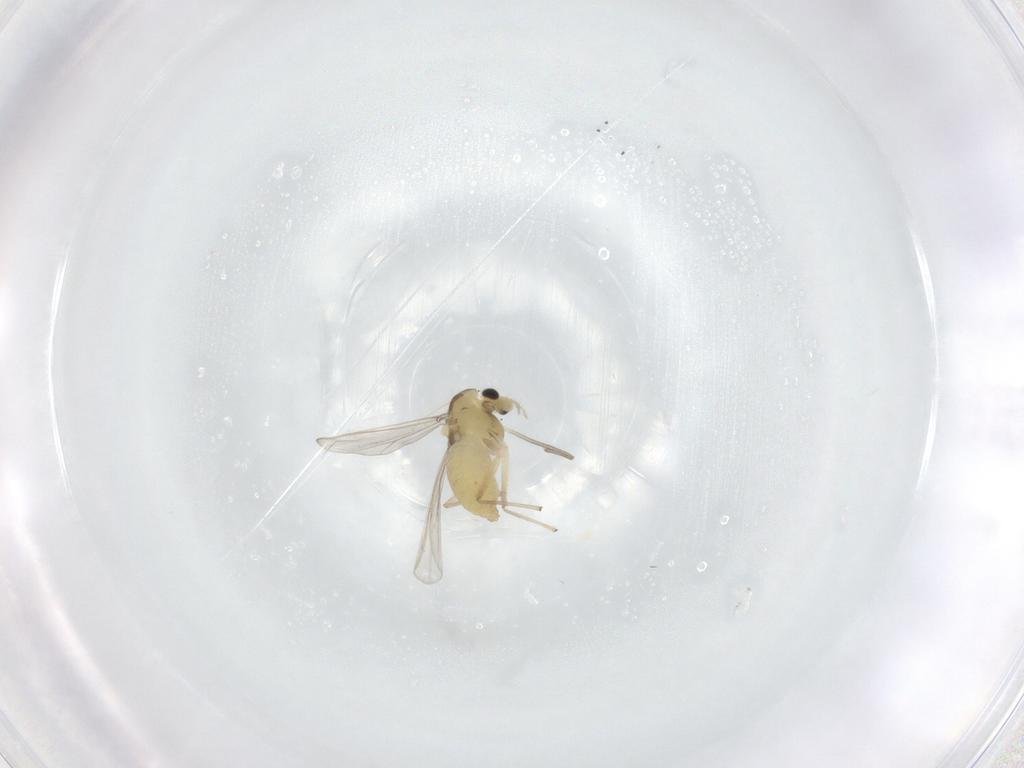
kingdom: Animalia
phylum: Arthropoda
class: Insecta
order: Diptera
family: Chironomidae
